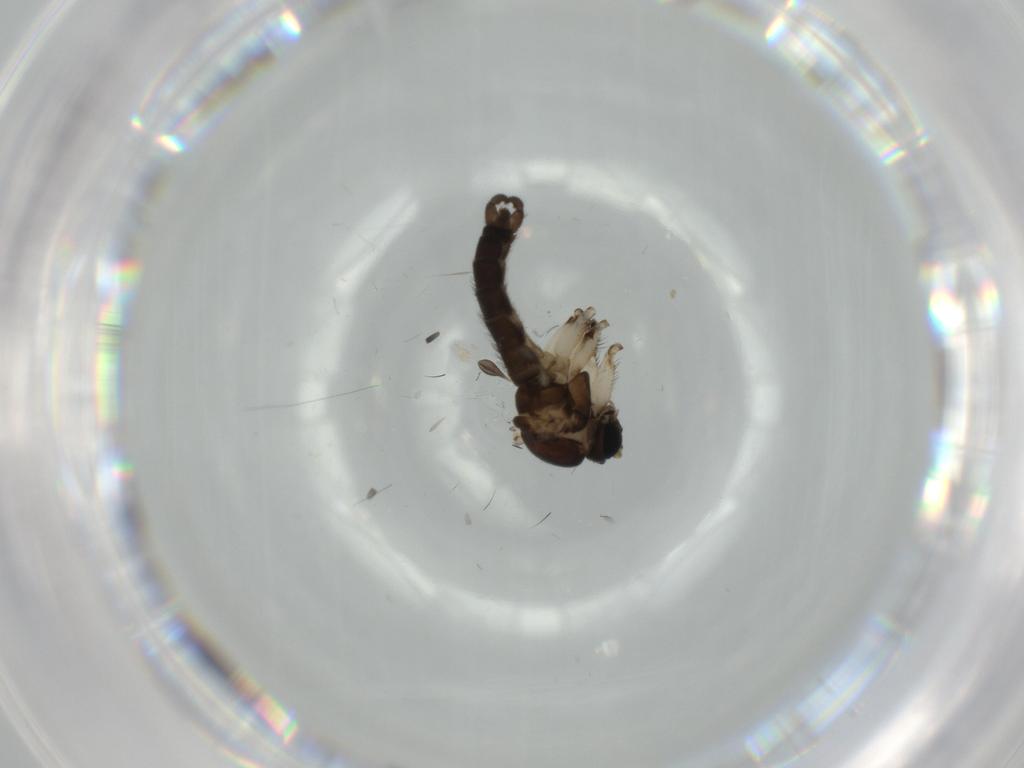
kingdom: Animalia
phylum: Arthropoda
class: Insecta
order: Diptera
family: Sciaridae
